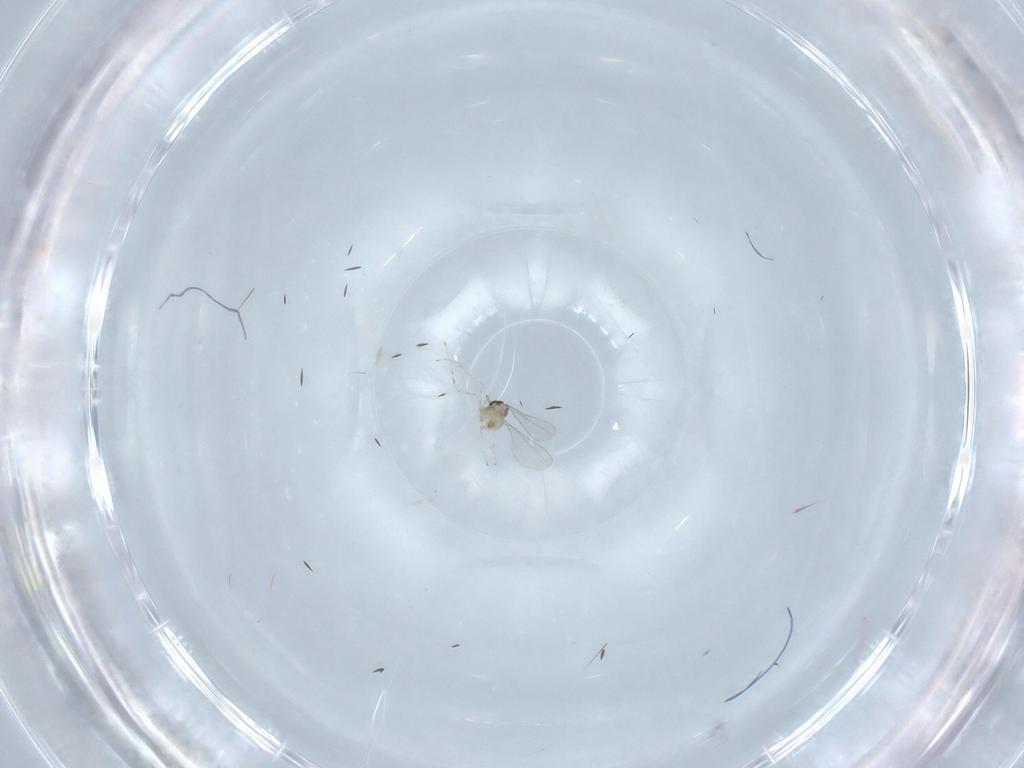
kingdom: Animalia
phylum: Arthropoda
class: Insecta
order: Diptera
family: Cecidomyiidae
